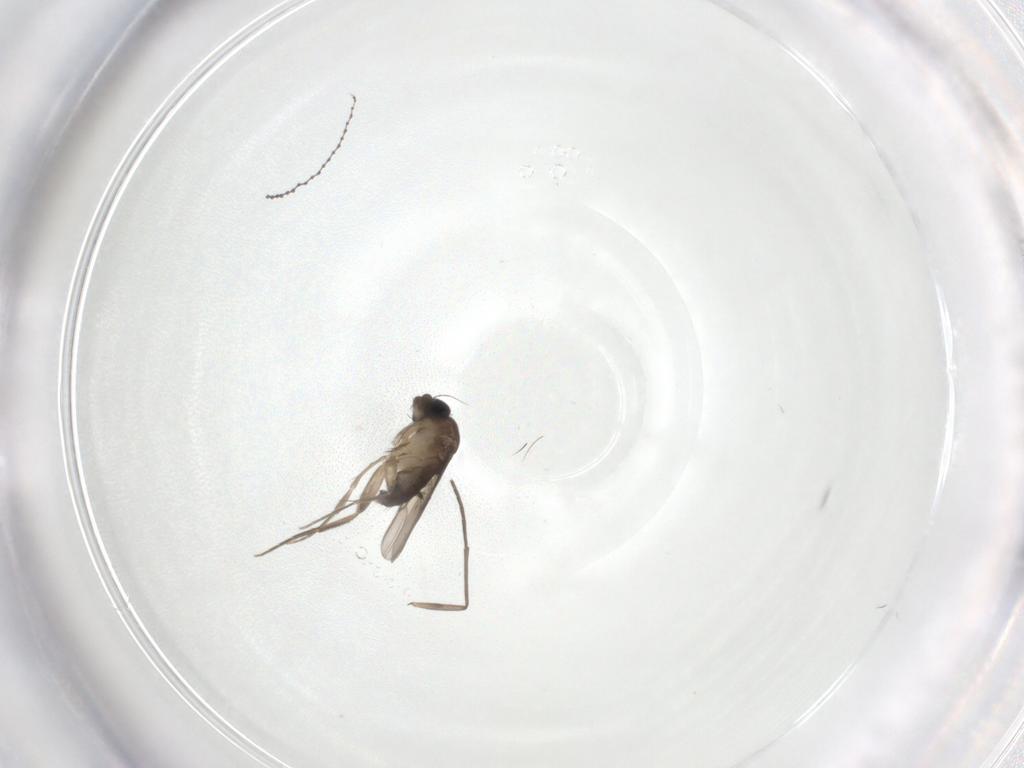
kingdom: Animalia
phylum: Arthropoda
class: Insecta
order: Diptera
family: Phoridae
